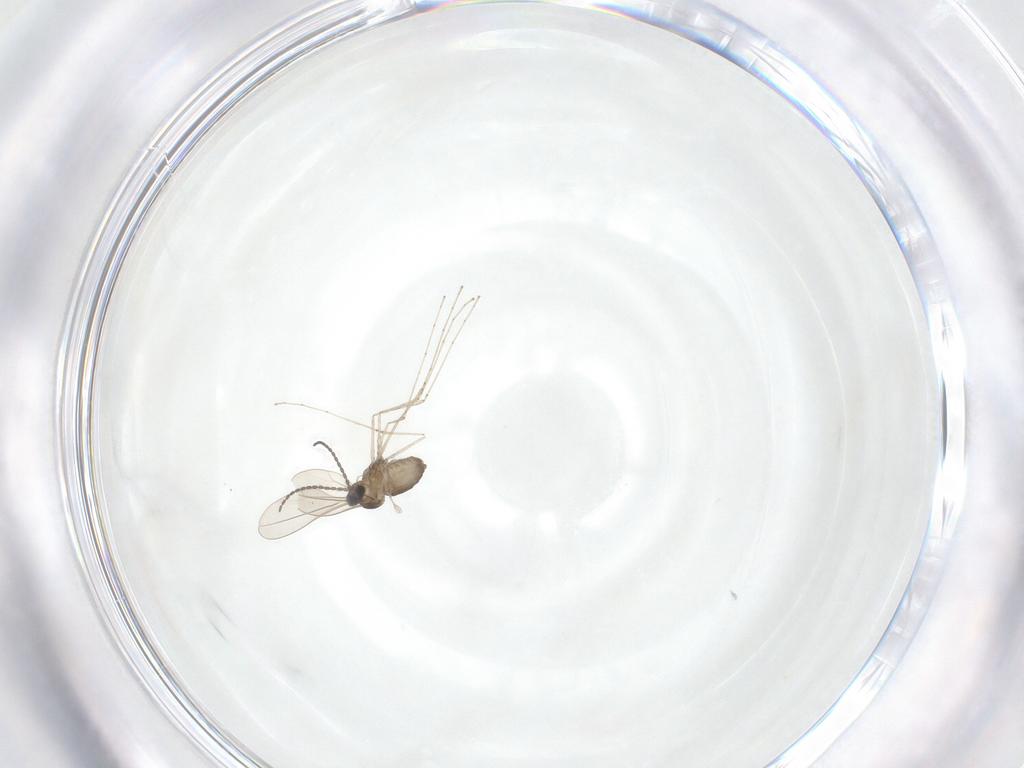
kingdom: Animalia
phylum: Arthropoda
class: Insecta
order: Diptera
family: Cecidomyiidae
